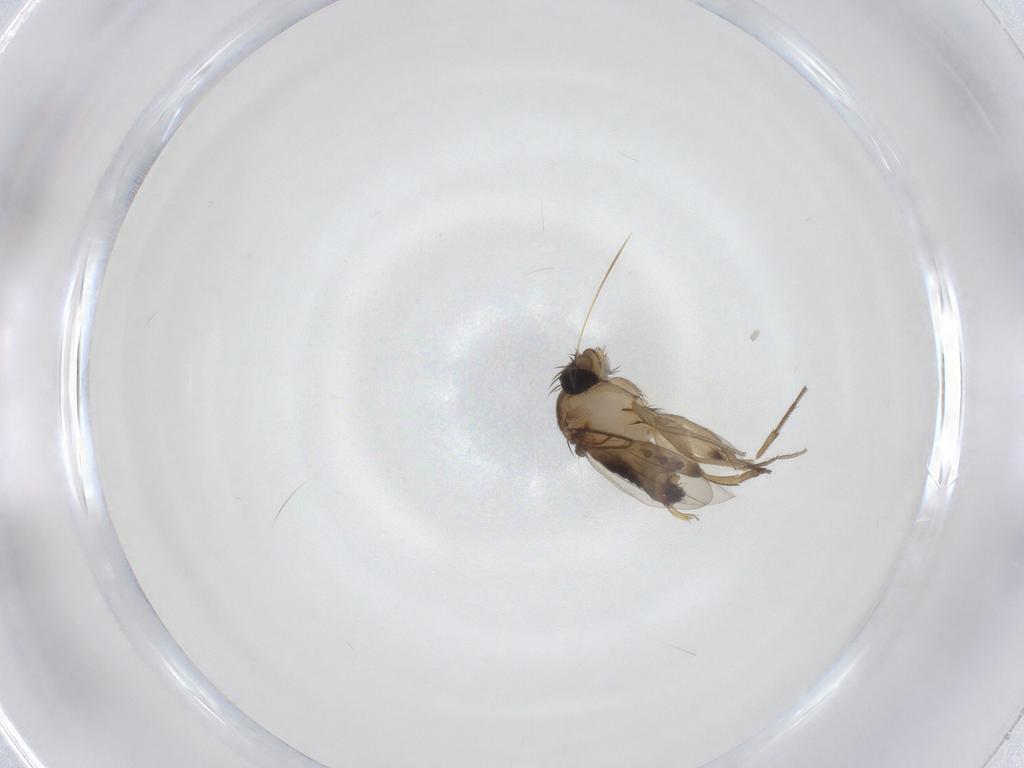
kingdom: Animalia
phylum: Arthropoda
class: Insecta
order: Diptera
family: Phoridae
